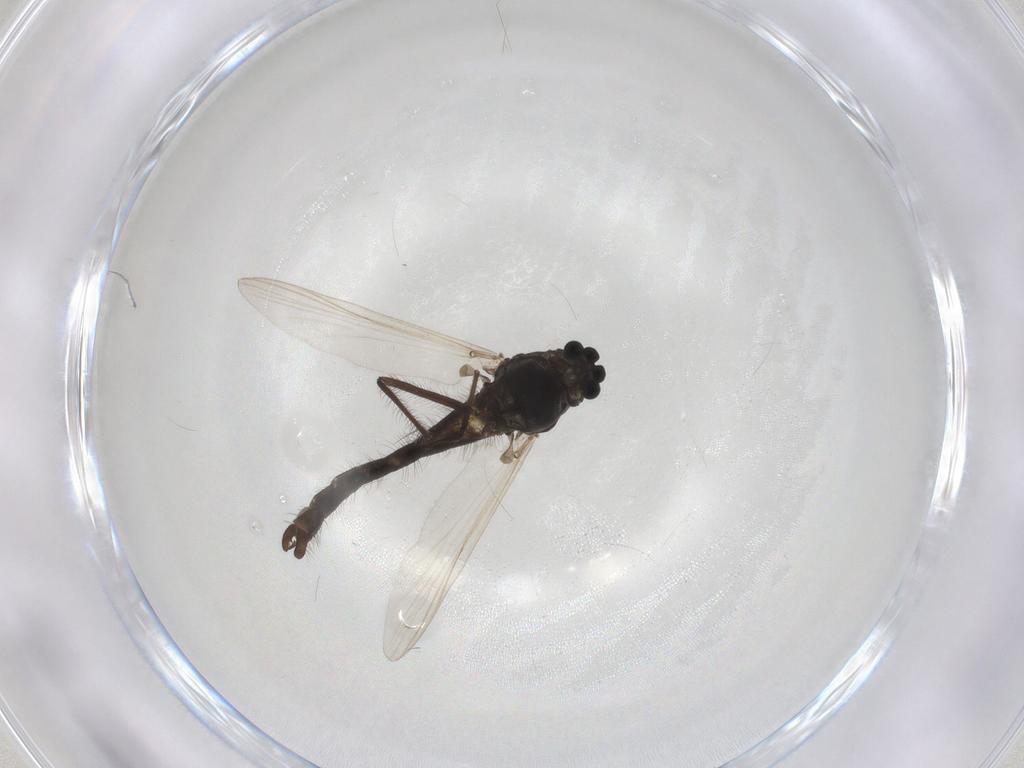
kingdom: Animalia
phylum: Arthropoda
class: Insecta
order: Diptera
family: Chironomidae
